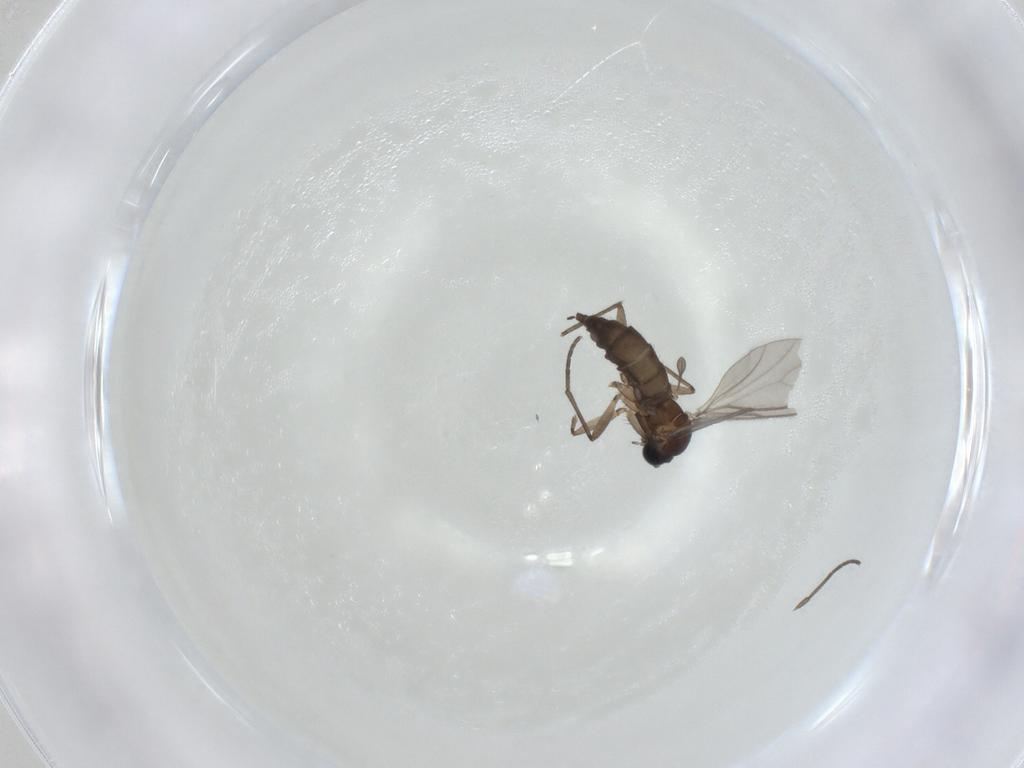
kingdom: Animalia
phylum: Arthropoda
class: Insecta
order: Diptera
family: Sciaridae
